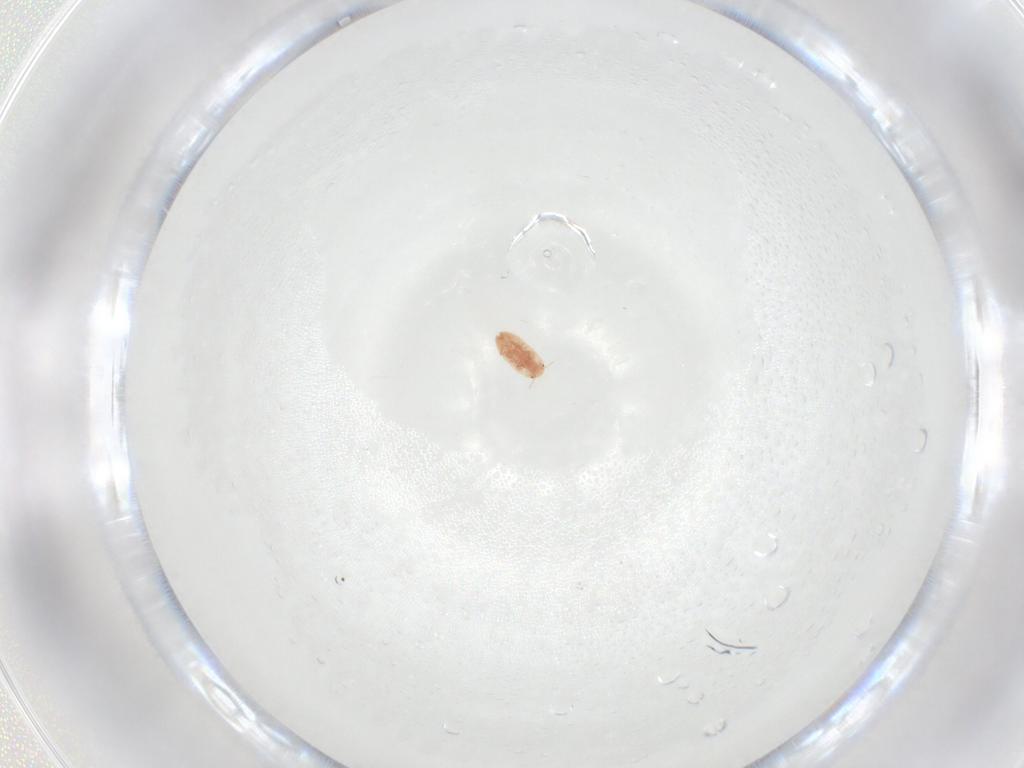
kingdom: Animalia
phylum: Arthropoda
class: Insecta
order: Hemiptera
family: Coccidae
